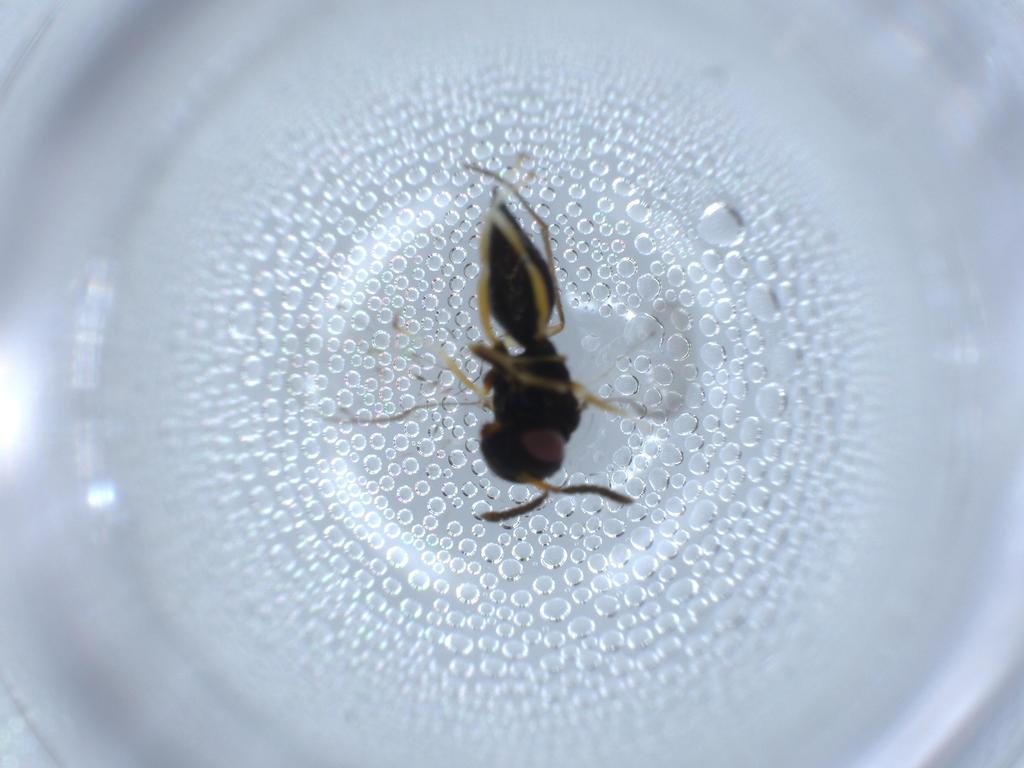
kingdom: Animalia
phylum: Arthropoda
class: Insecta
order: Hymenoptera
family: Pteromalidae
